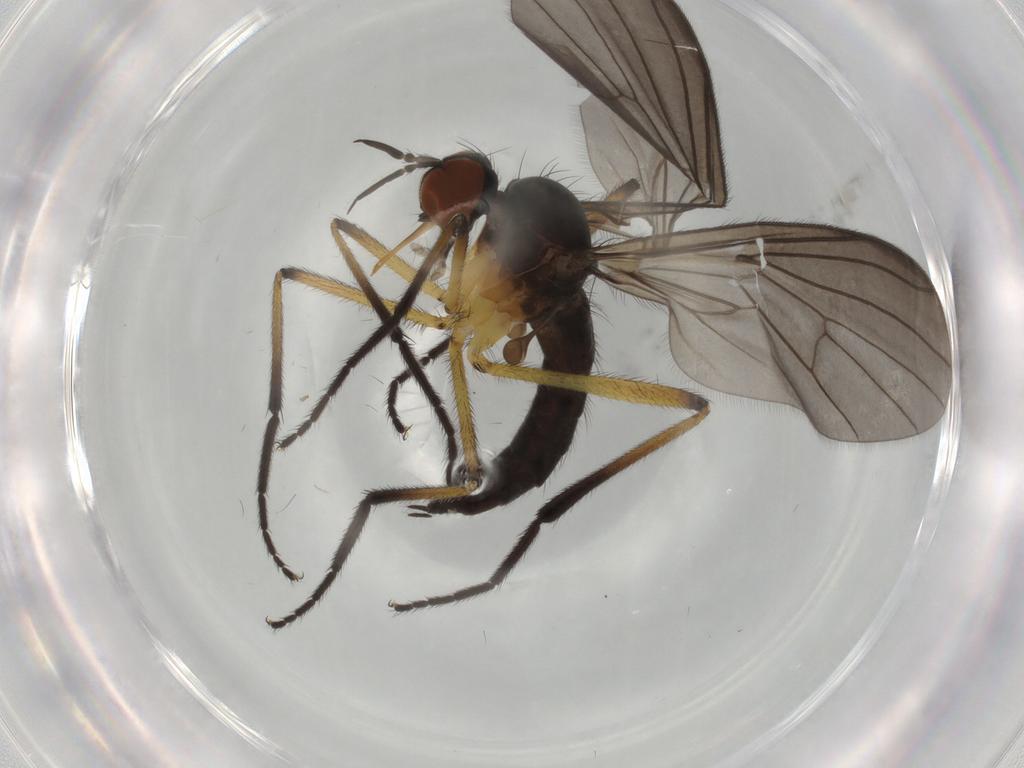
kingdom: Animalia
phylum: Arthropoda
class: Insecta
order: Diptera
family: Empididae
